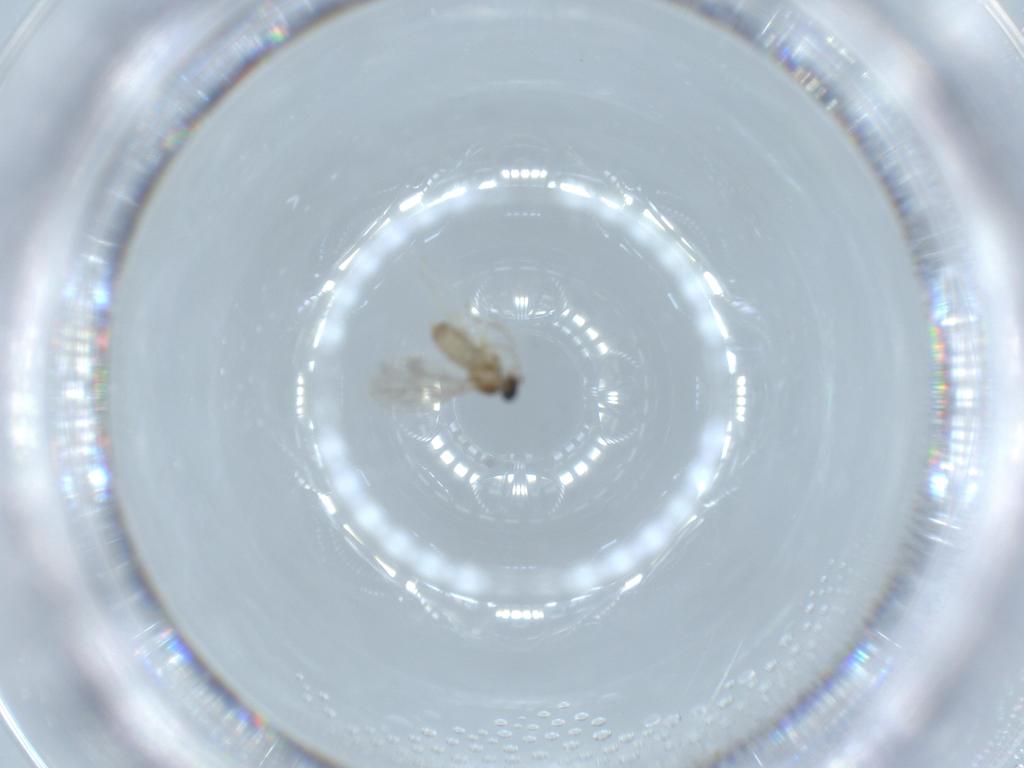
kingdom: Animalia
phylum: Arthropoda
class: Insecta
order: Diptera
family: Cecidomyiidae
